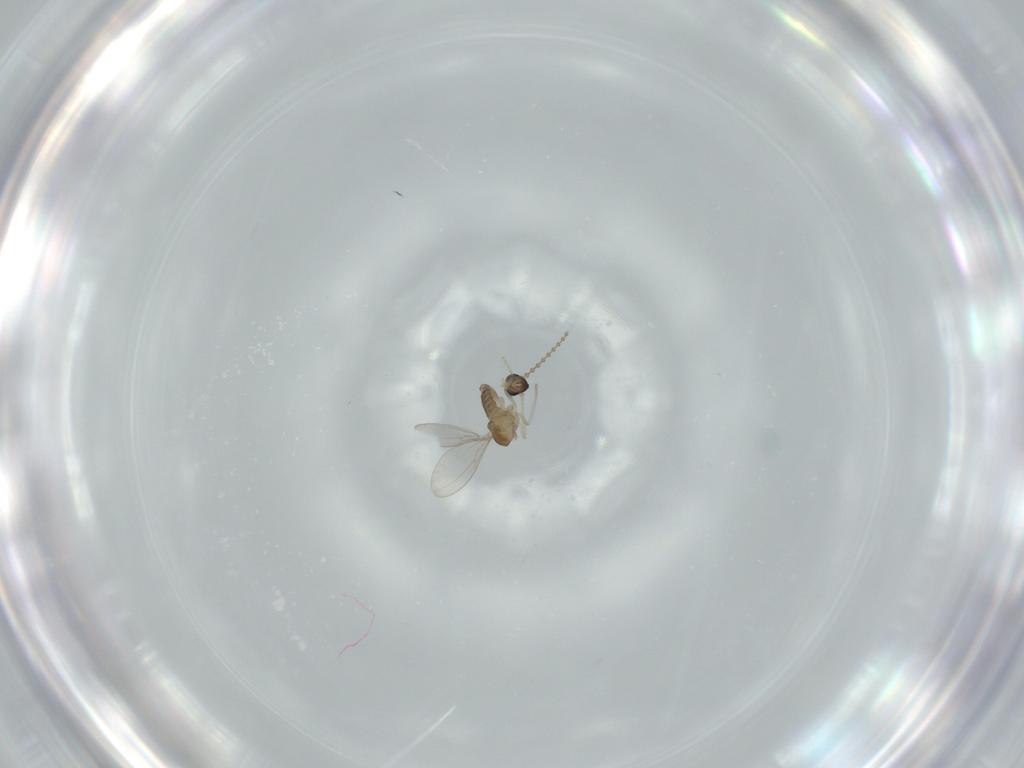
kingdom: Animalia
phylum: Arthropoda
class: Insecta
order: Diptera
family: Cecidomyiidae
